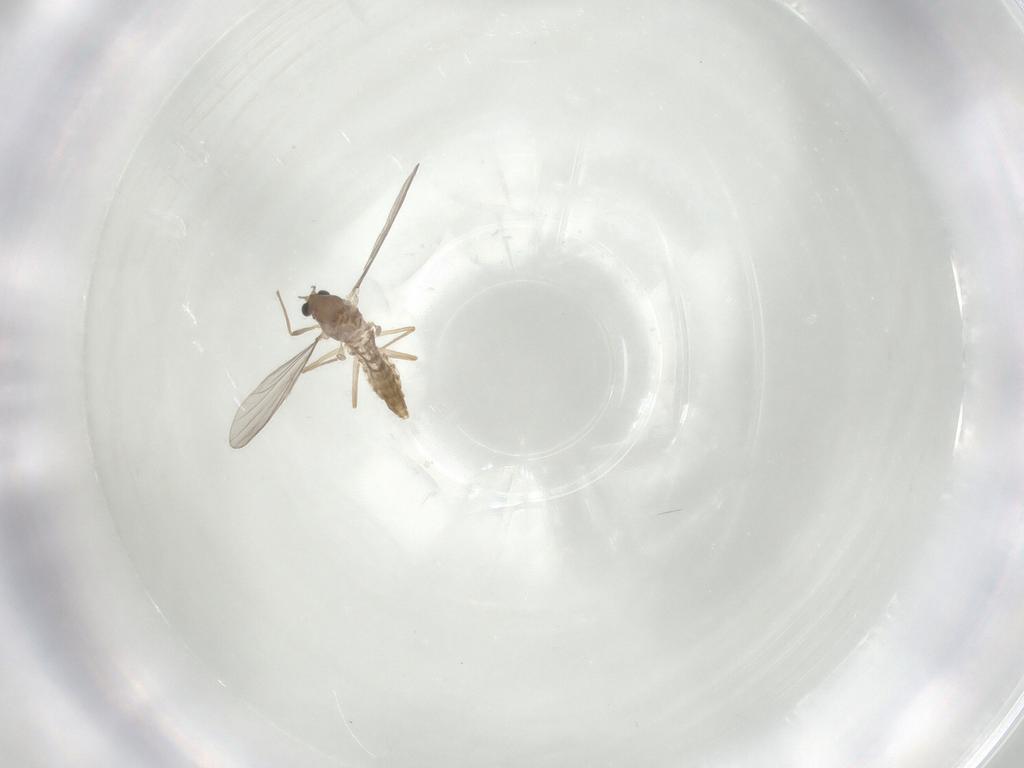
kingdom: Animalia
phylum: Arthropoda
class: Insecta
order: Diptera
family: Chironomidae
